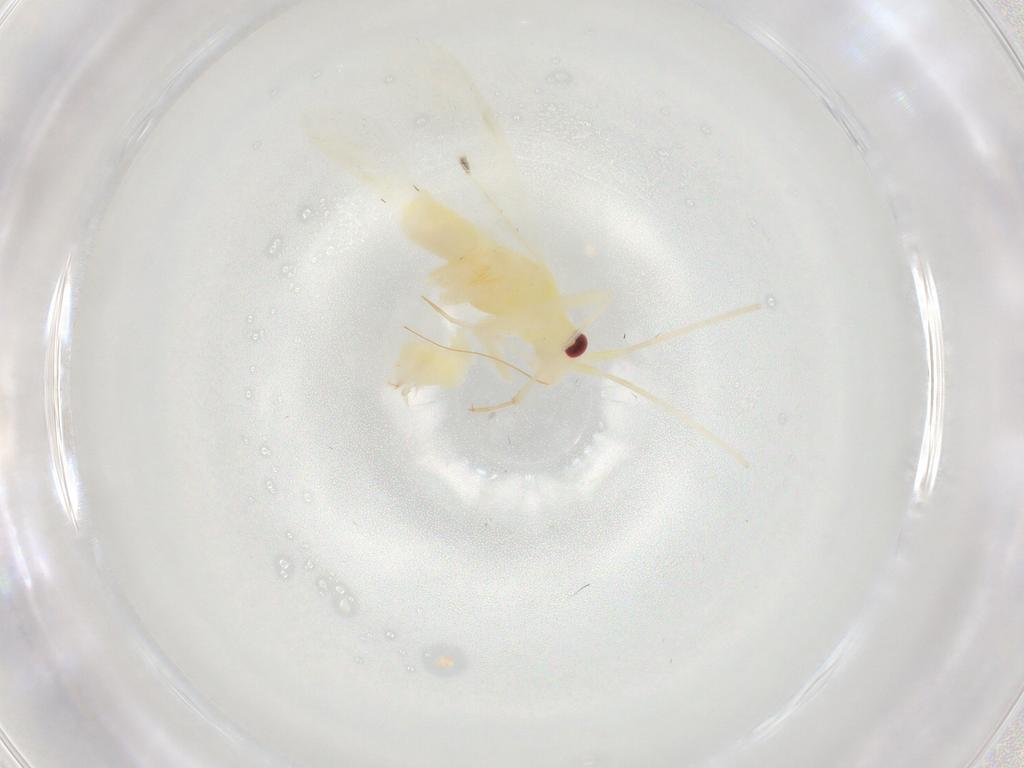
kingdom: Animalia
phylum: Arthropoda
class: Insecta
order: Hemiptera
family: Miridae
